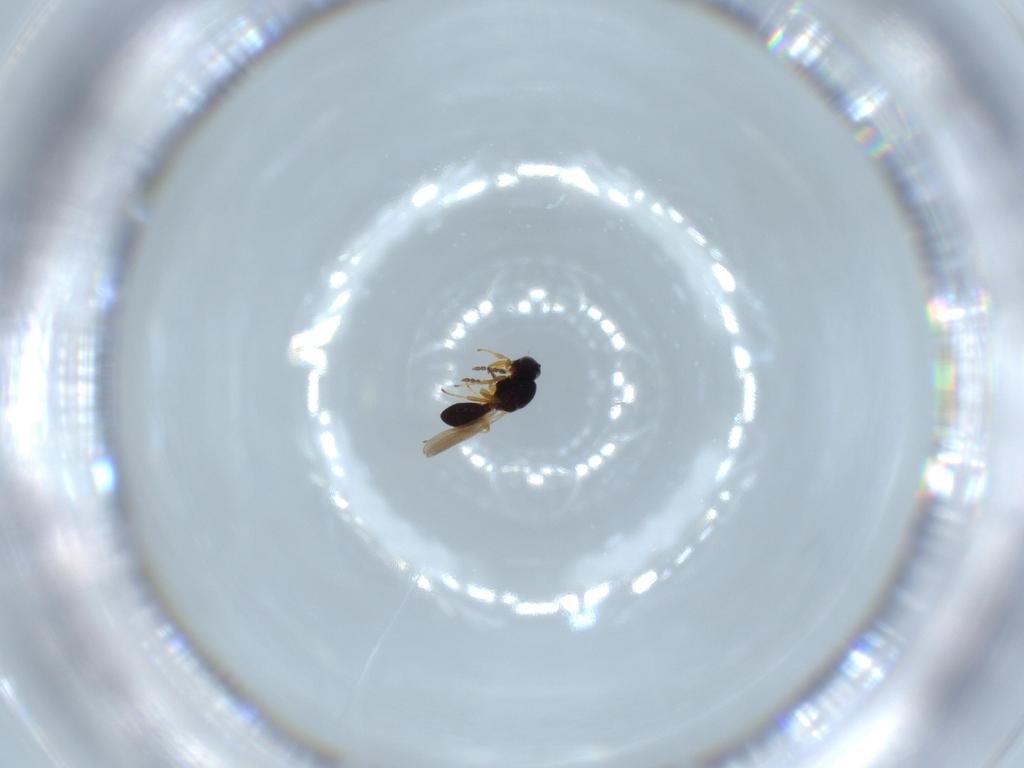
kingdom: Animalia
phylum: Arthropoda
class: Insecta
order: Hymenoptera
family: Platygastridae
